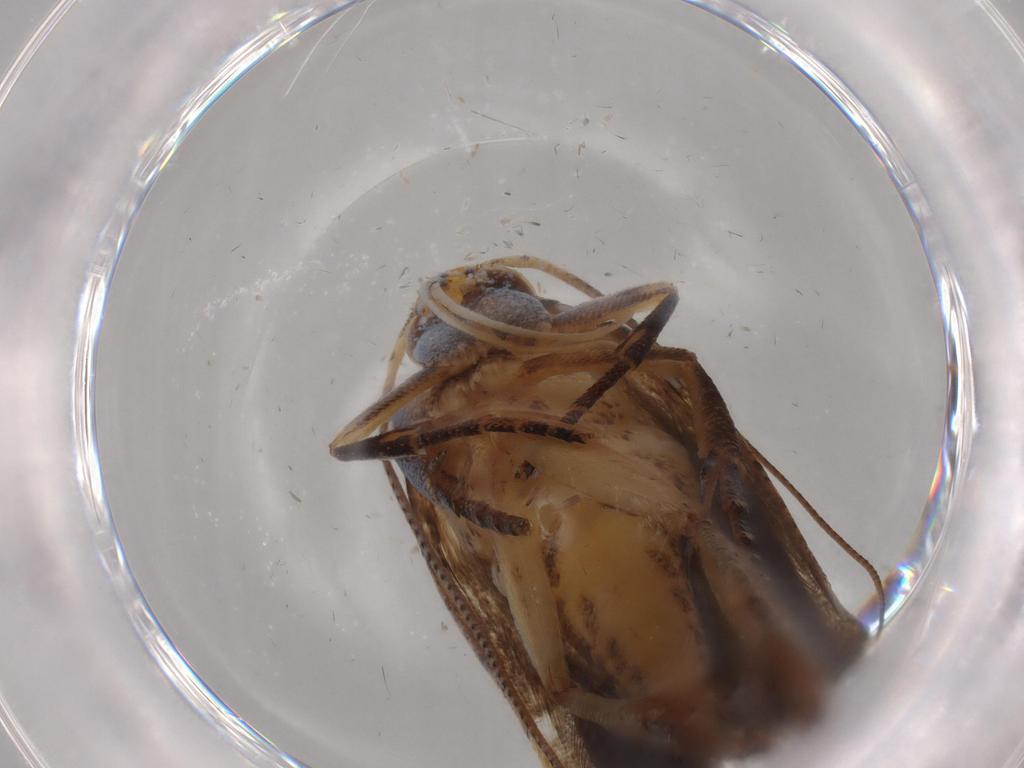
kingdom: Animalia
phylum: Arthropoda
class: Insecta
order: Lepidoptera
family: Gelechiidae
